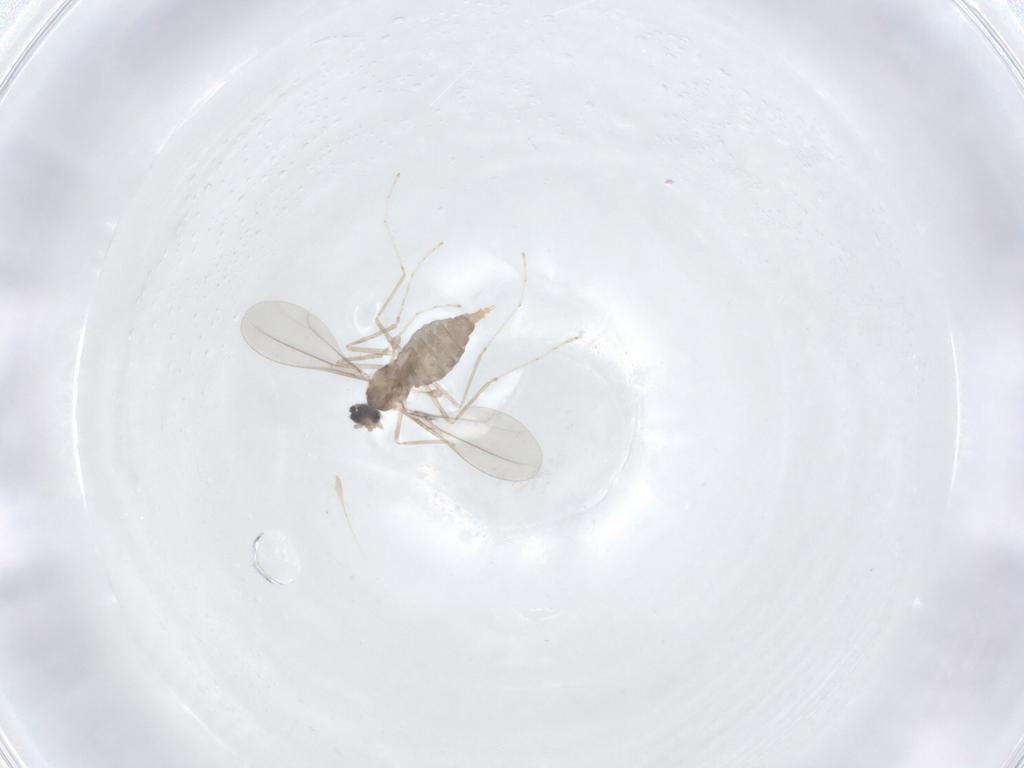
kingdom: Animalia
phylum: Arthropoda
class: Insecta
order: Diptera
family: Cecidomyiidae
